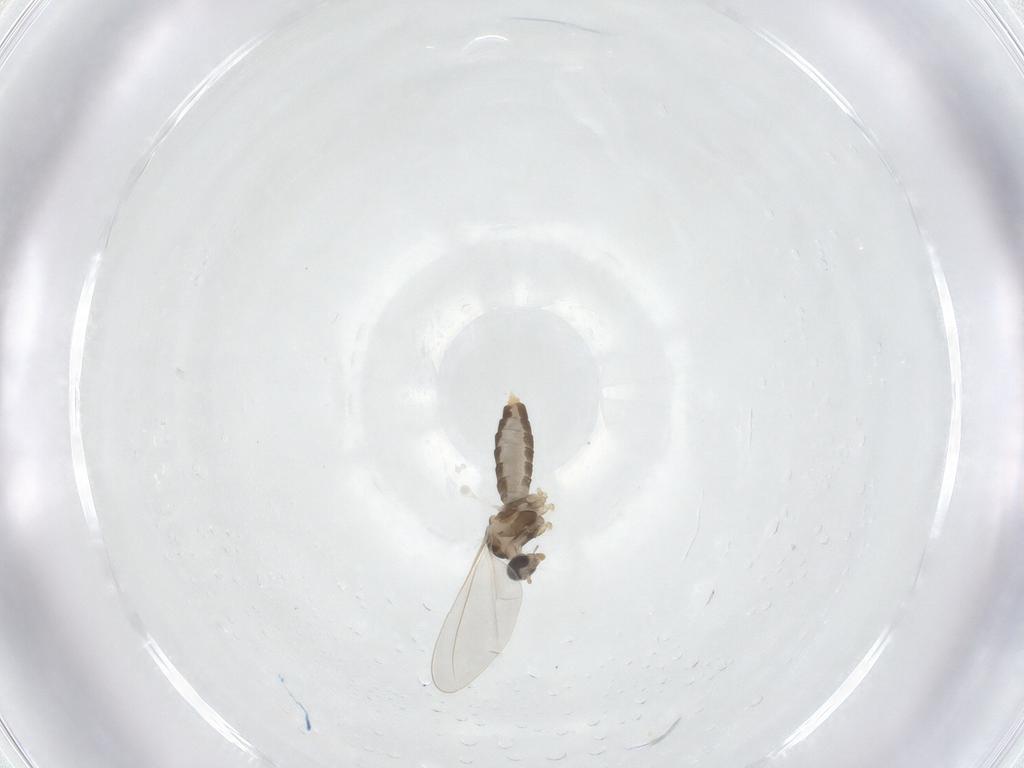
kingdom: Animalia
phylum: Arthropoda
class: Insecta
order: Diptera
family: Cecidomyiidae
